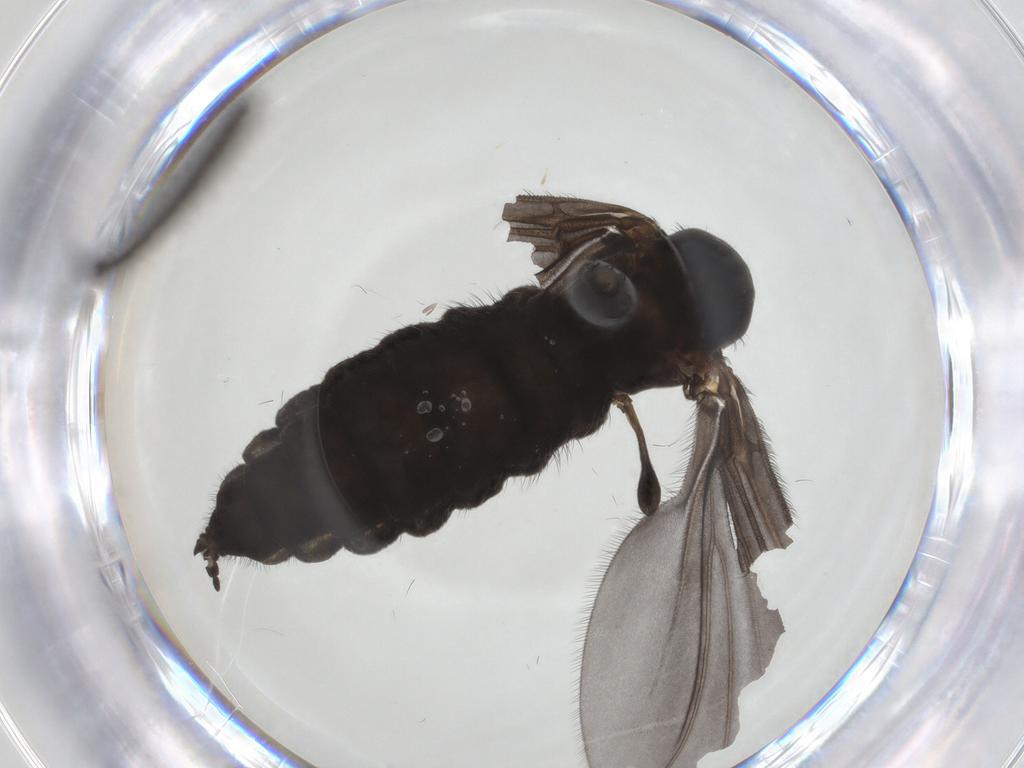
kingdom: Animalia
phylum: Arthropoda
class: Insecta
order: Diptera
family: Sciaridae
